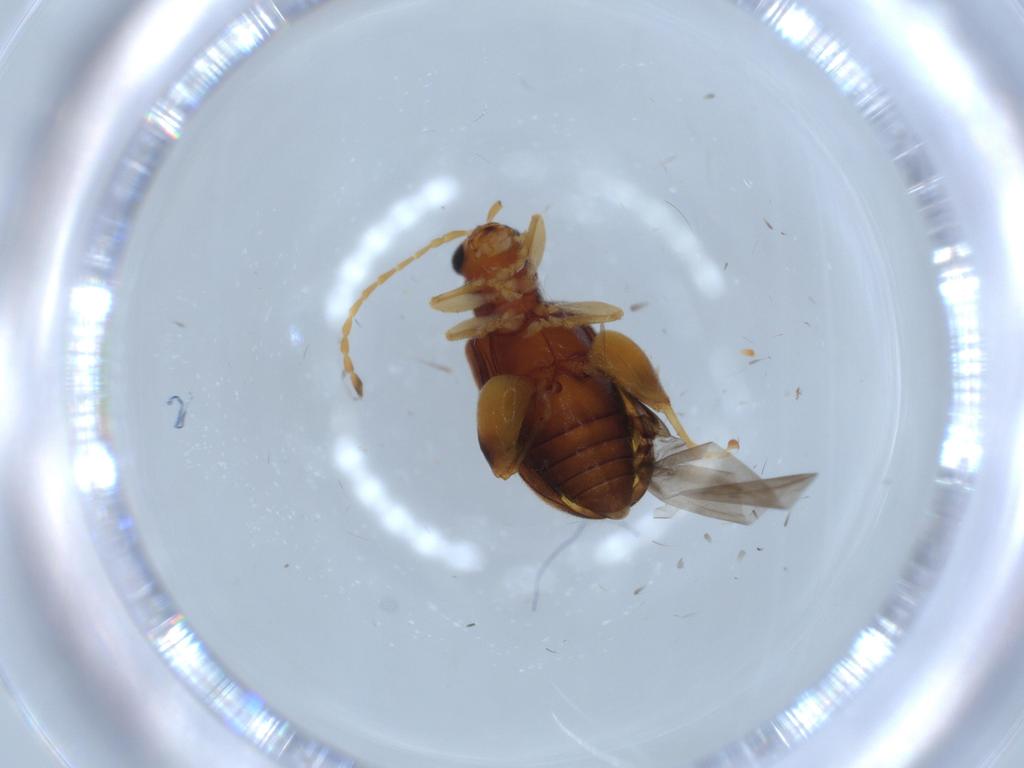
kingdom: Animalia
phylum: Arthropoda
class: Insecta
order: Coleoptera
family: Chrysomelidae
